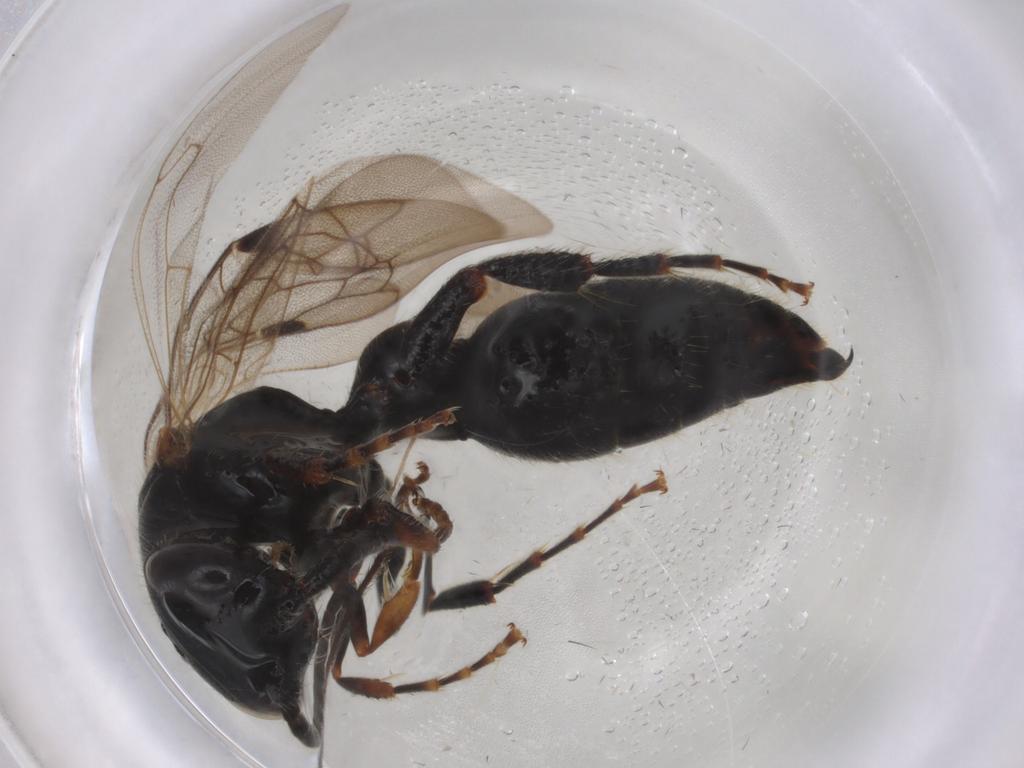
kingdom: Animalia
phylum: Arthropoda
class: Insecta
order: Hymenoptera
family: Tiphiidae
